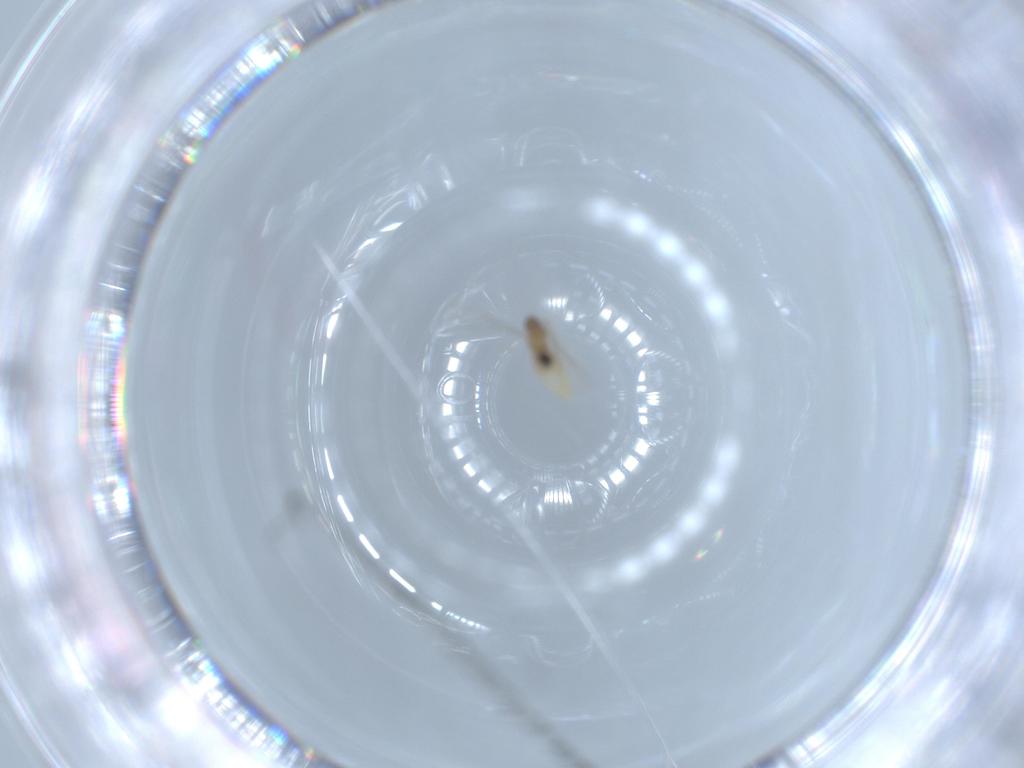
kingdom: Animalia
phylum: Arthropoda
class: Insecta
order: Diptera
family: Cecidomyiidae
